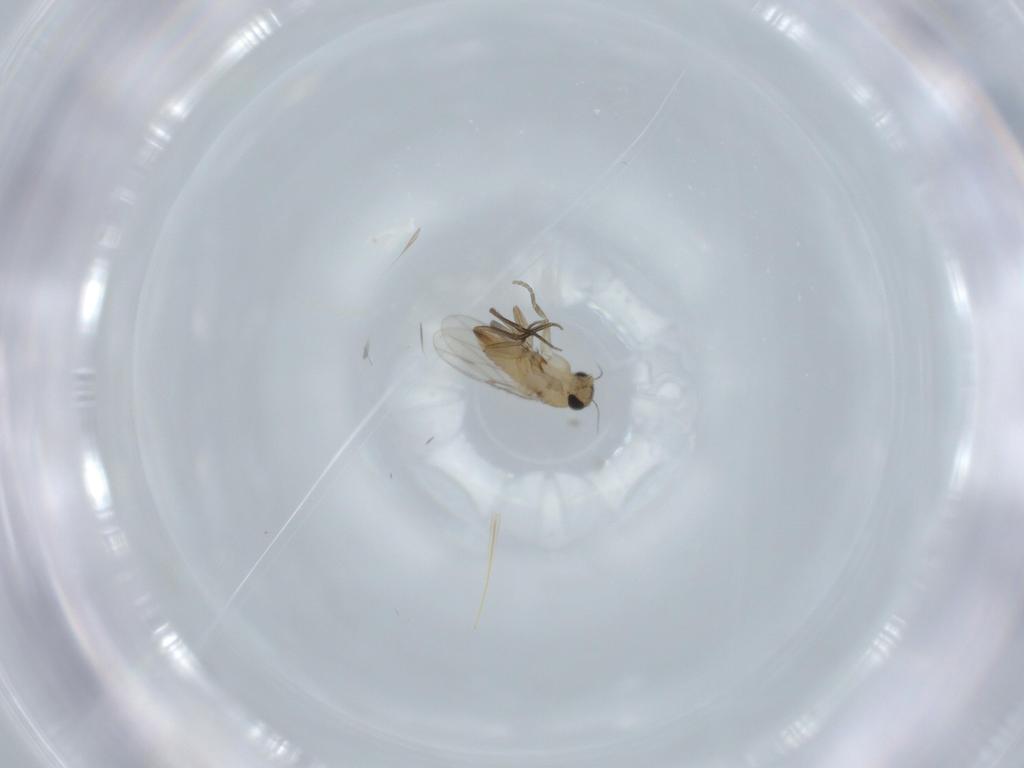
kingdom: Animalia
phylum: Arthropoda
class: Insecta
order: Diptera
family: Phoridae
